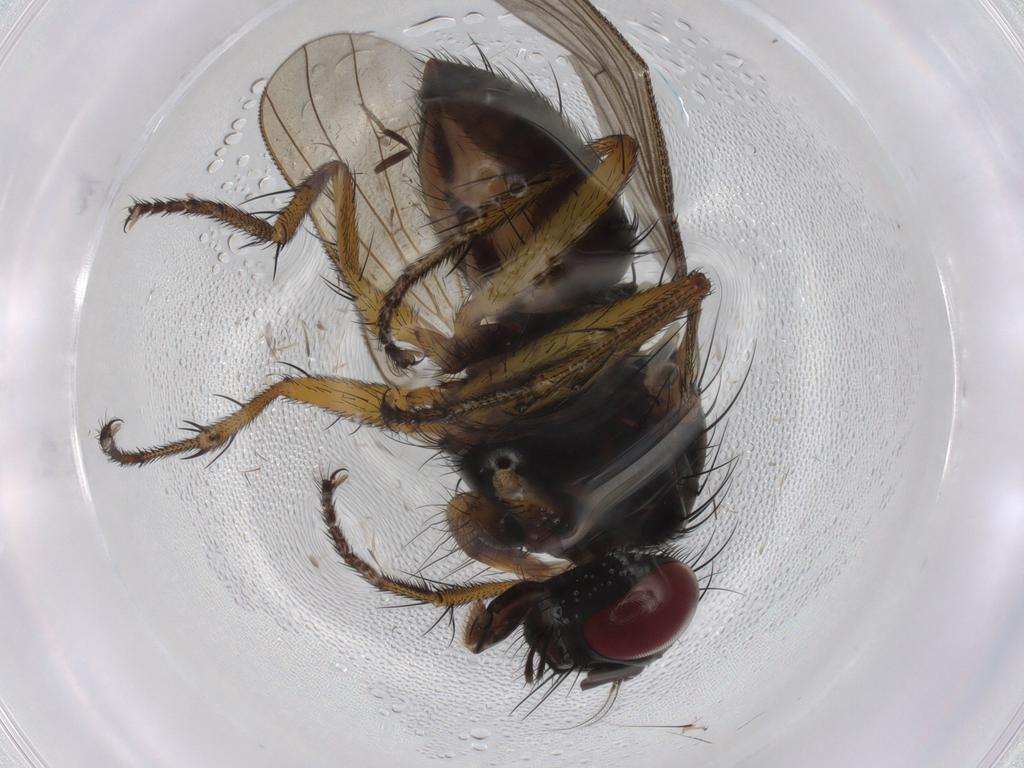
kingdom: Animalia
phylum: Arthropoda
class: Insecta
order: Diptera
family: Muscidae
